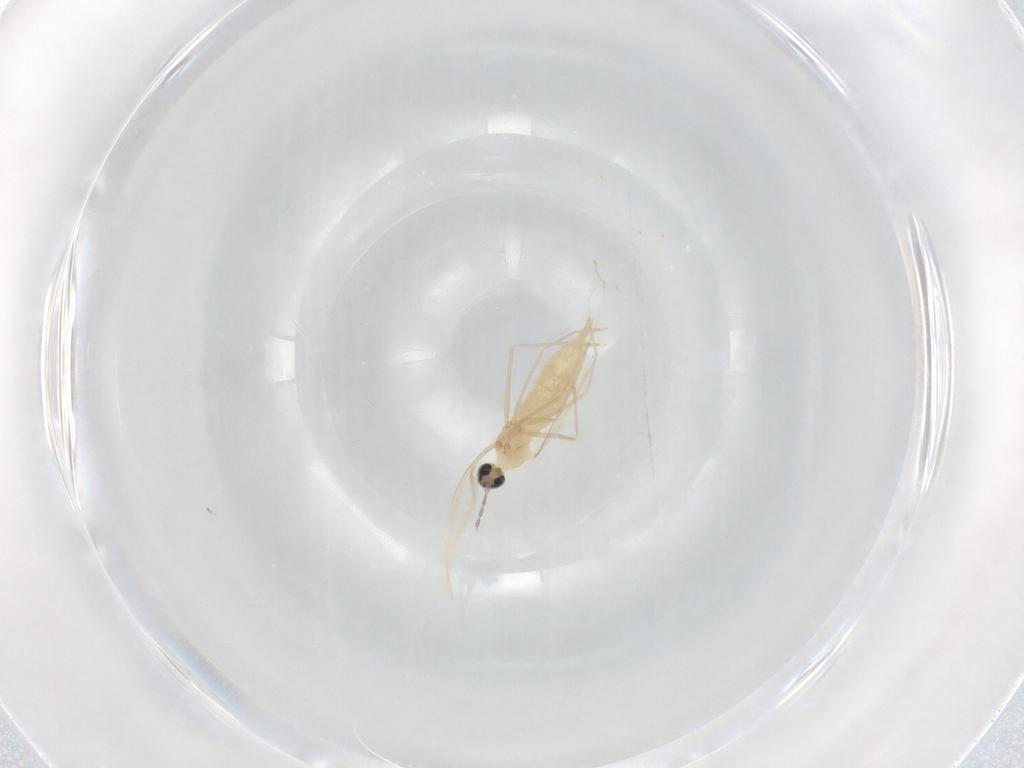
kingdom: Animalia
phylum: Arthropoda
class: Insecta
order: Diptera
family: Cecidomyiidae
